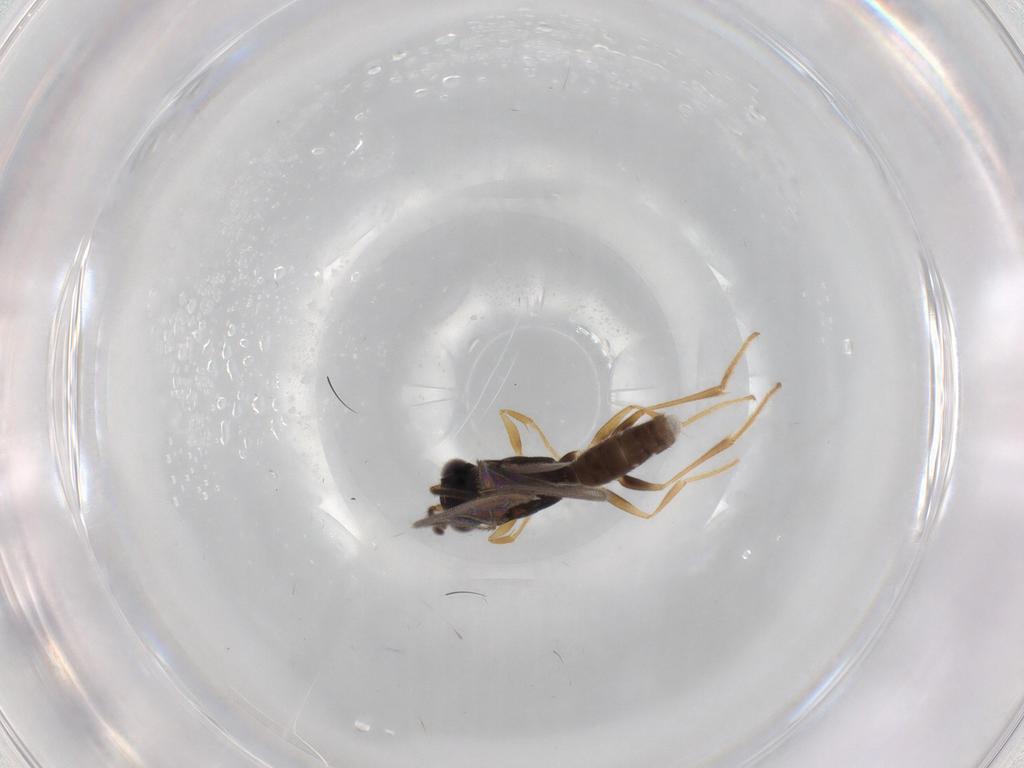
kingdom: Animalia
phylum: Arthropoda
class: Insecta
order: Hymenoptera
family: Dryinidae
